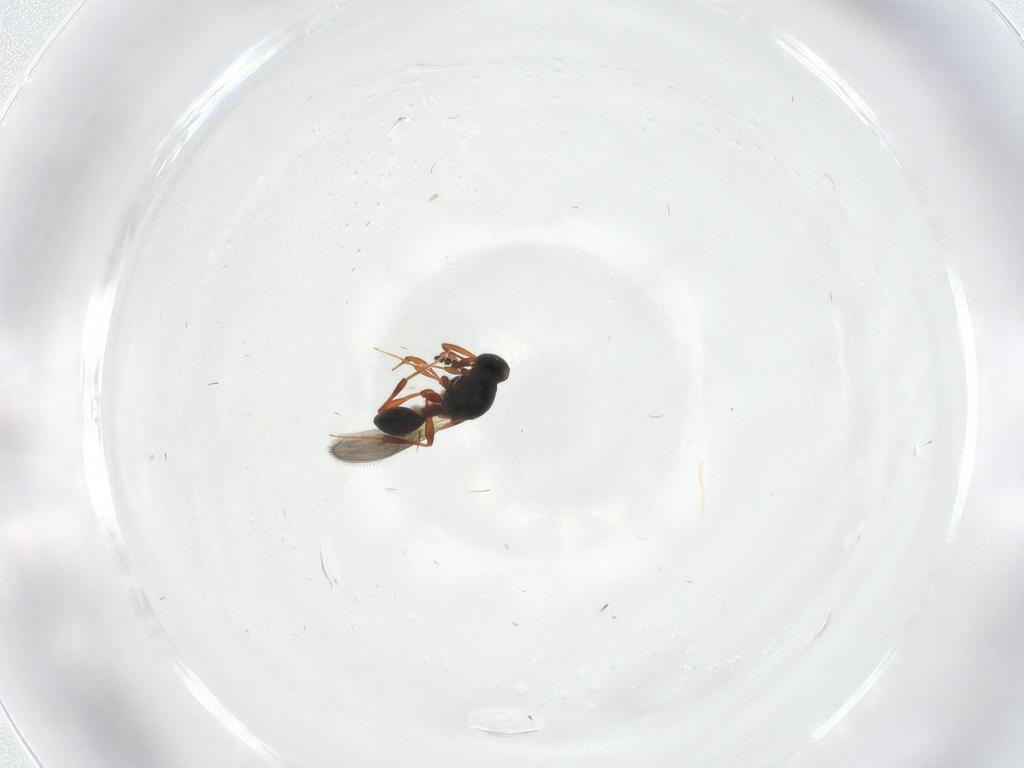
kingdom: Animalia
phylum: Arthropoda
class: Insecta
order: Hymenoptera
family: Platygastridae
